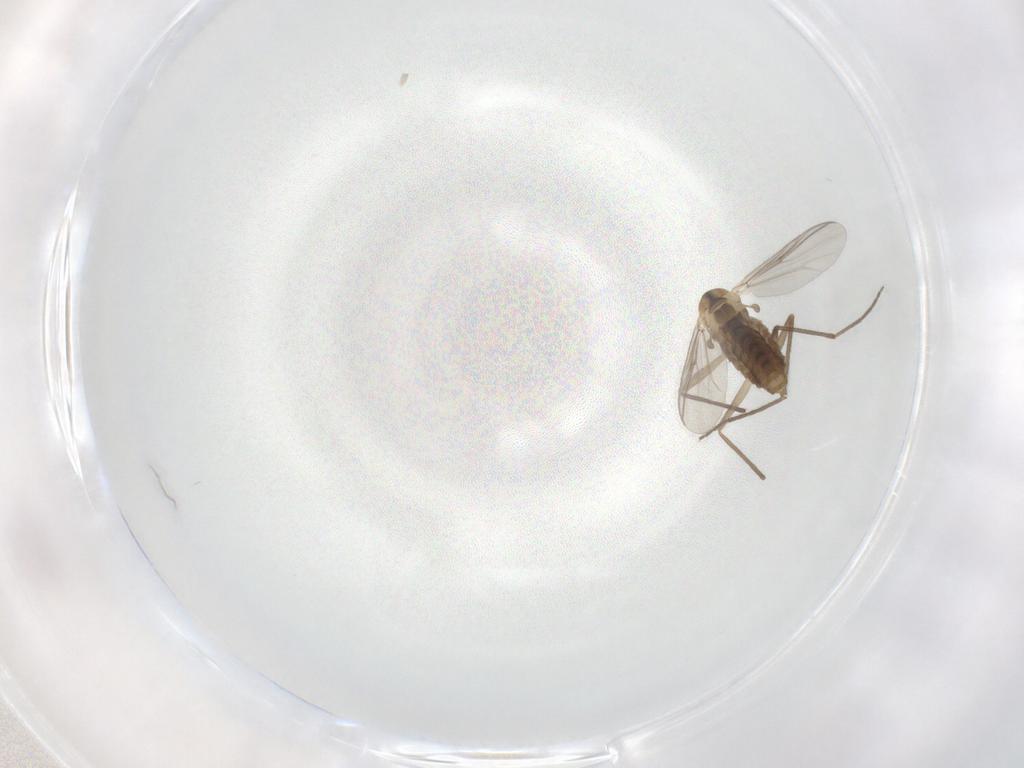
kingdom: Animalia
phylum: Arthropoda
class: Insecta
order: Diptera
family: Chironomidae
